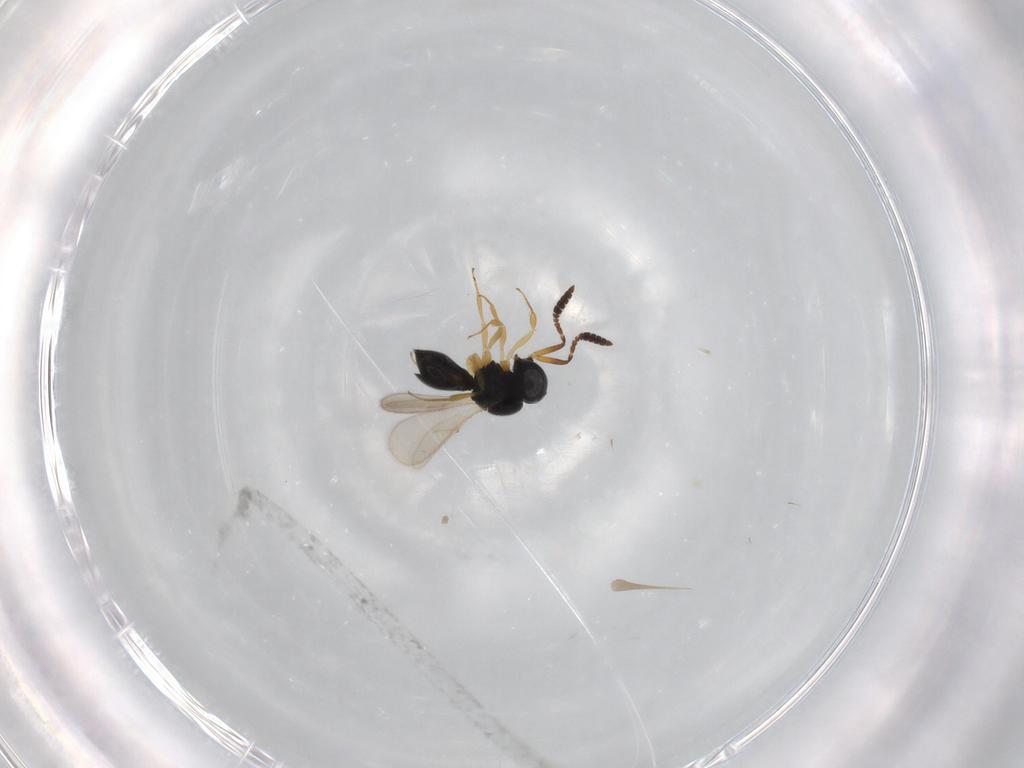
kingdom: Animalia
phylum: Arthropoda
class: Insecta
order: Hymenoptera
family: Scelionidae
